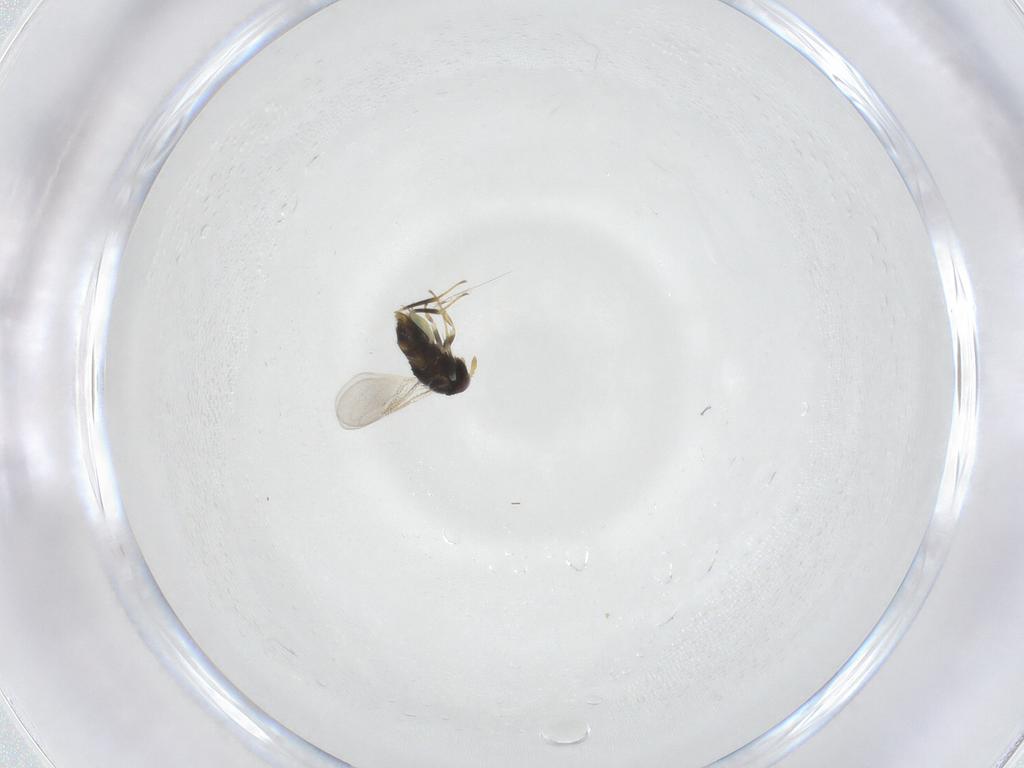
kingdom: Animalia
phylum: Arthropoda
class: Insecta
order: Hymenoptera
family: Aphelinidae
